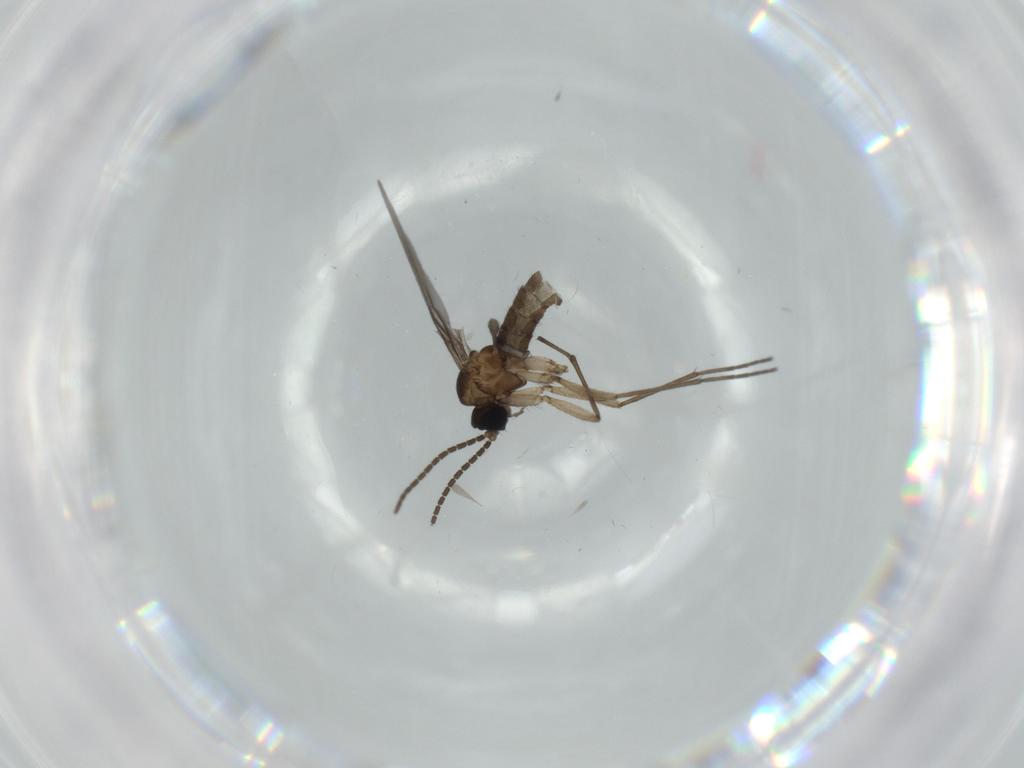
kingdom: Animalia
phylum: Arthropoda
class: Insecta
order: Diptera
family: Sciaridae
